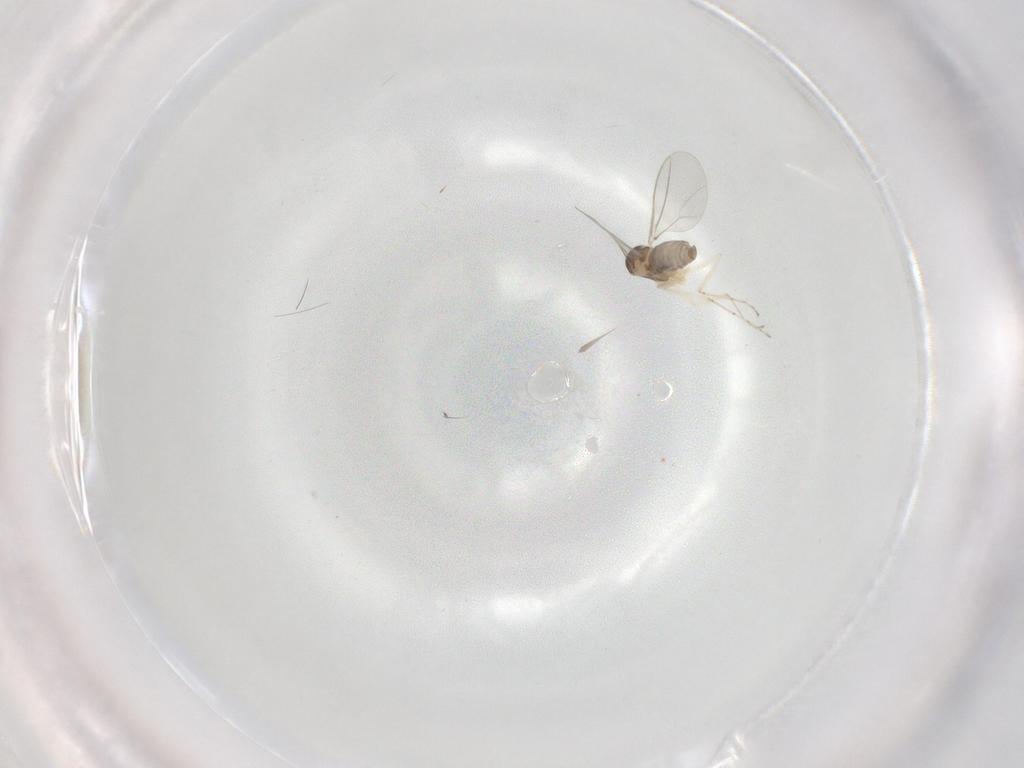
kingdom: Animalia
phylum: Arthropoda
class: Insecta
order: Diptera
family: Cecidomyiidae
